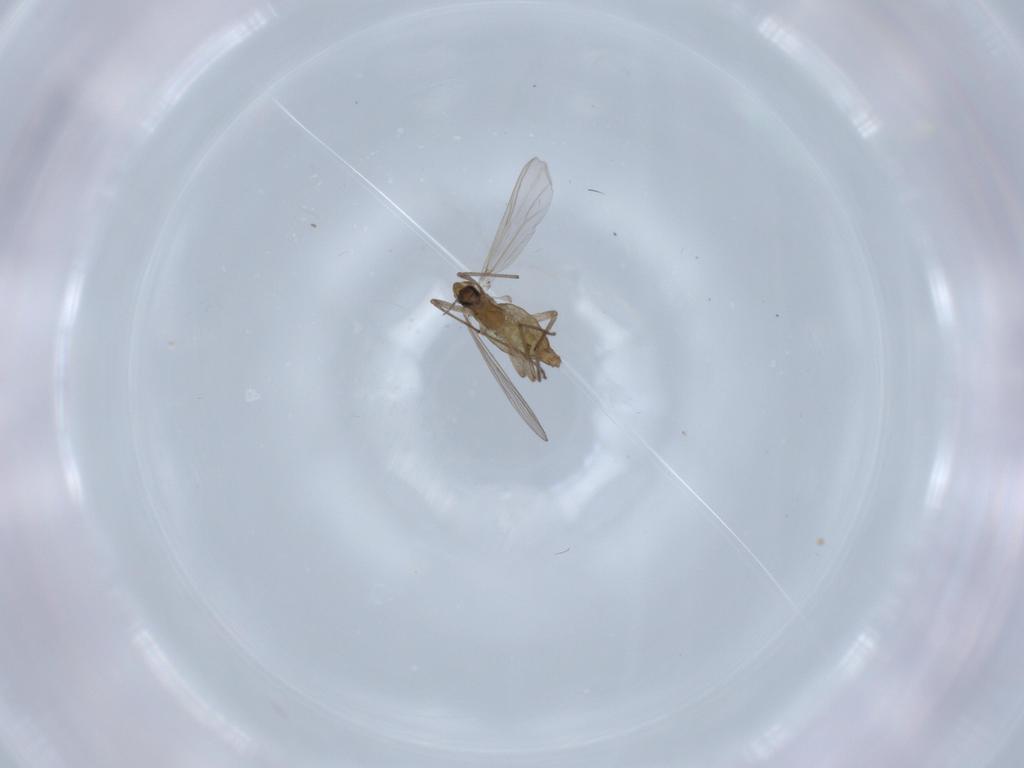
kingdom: Animalia
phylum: Arthropoda
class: Insecta
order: Diptera
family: Chironomidae
